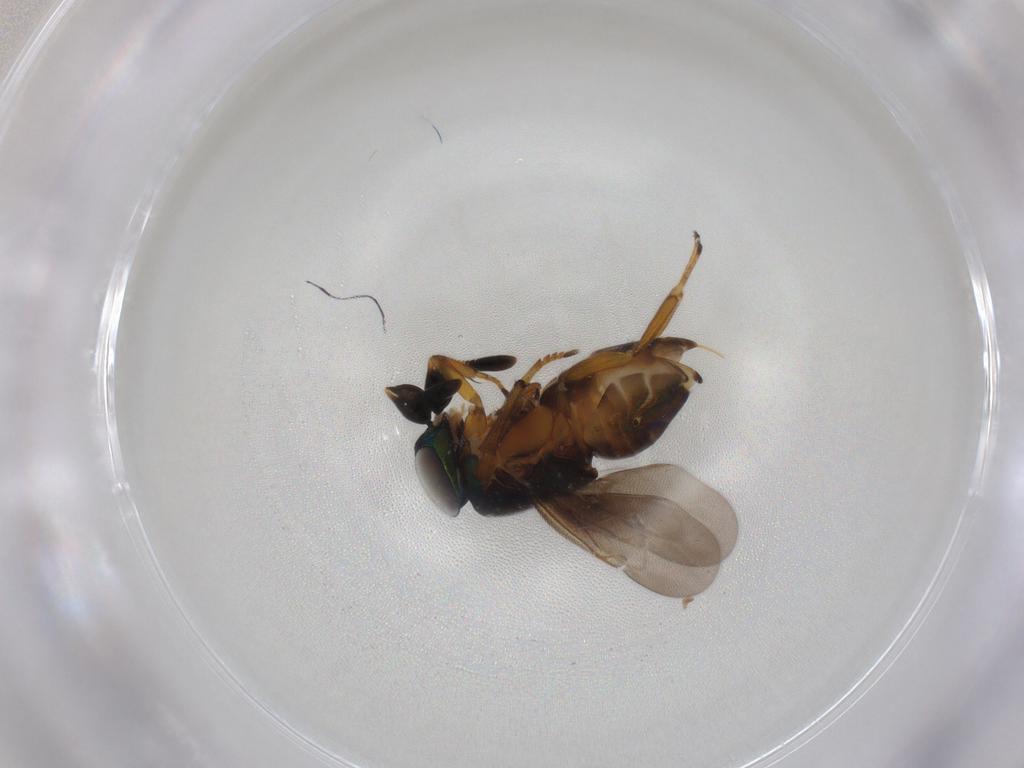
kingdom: Animalia
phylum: Arthropoda
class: Insecta
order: Hymenoptera
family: Encyrtidae
